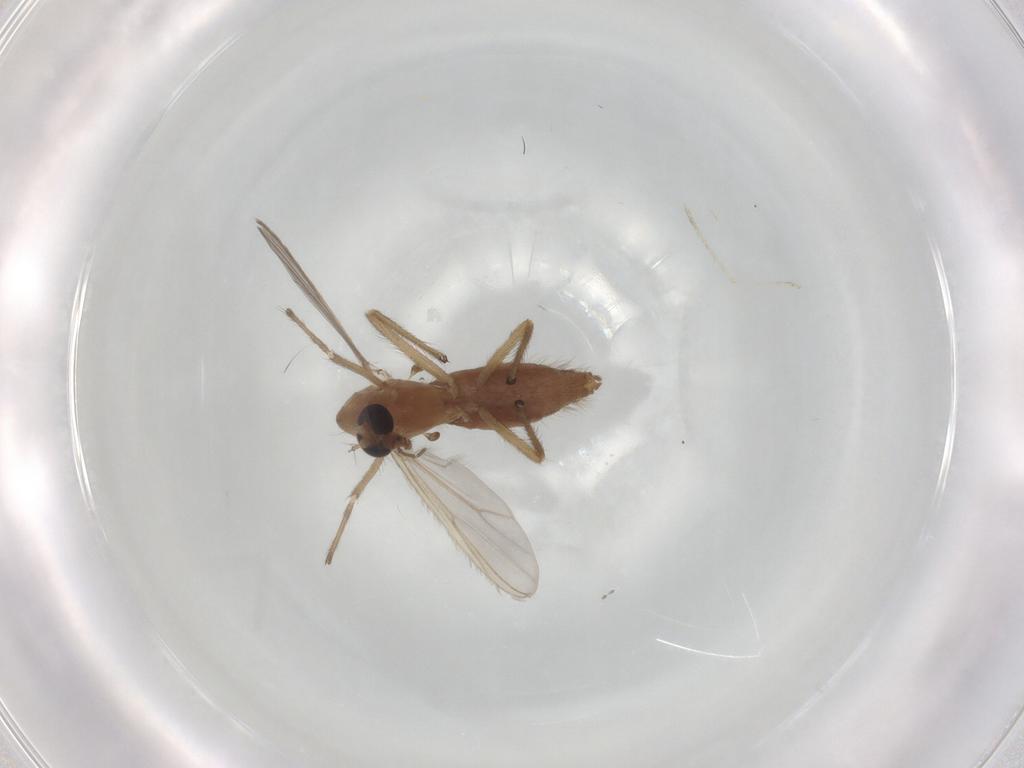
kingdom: Animalia
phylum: Arthropoda
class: Insecta
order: Diptera
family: Chironomidae
